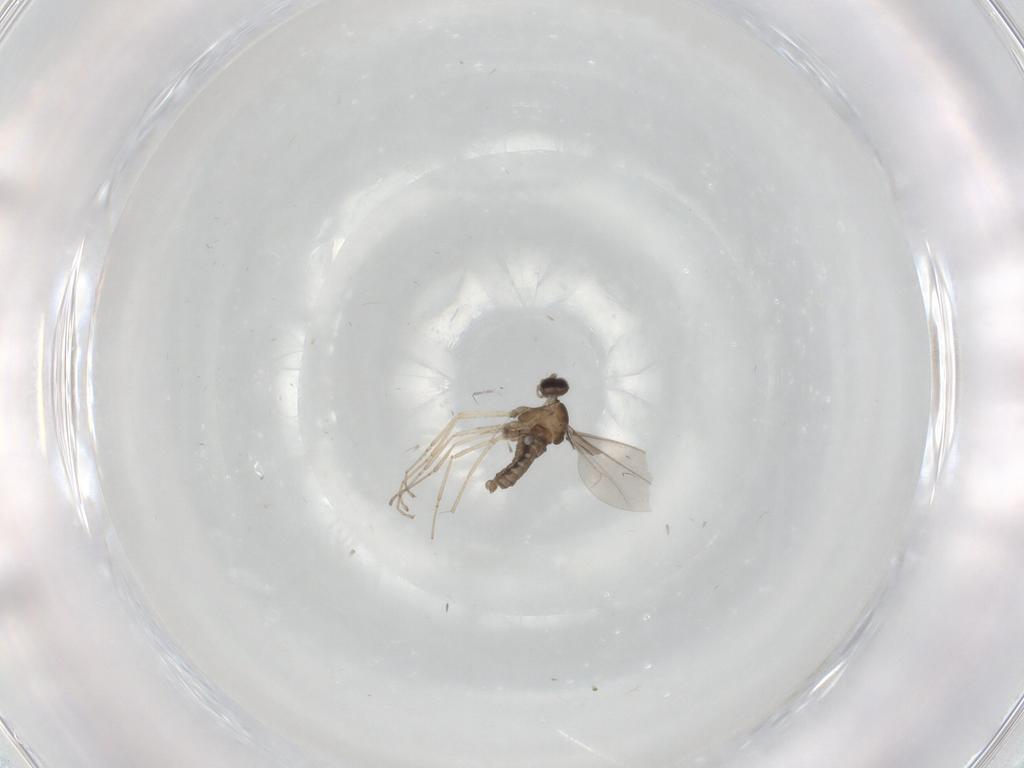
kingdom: Animalia
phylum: Arthropoda
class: Insecta
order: Diptera
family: Cecidomyiidae
